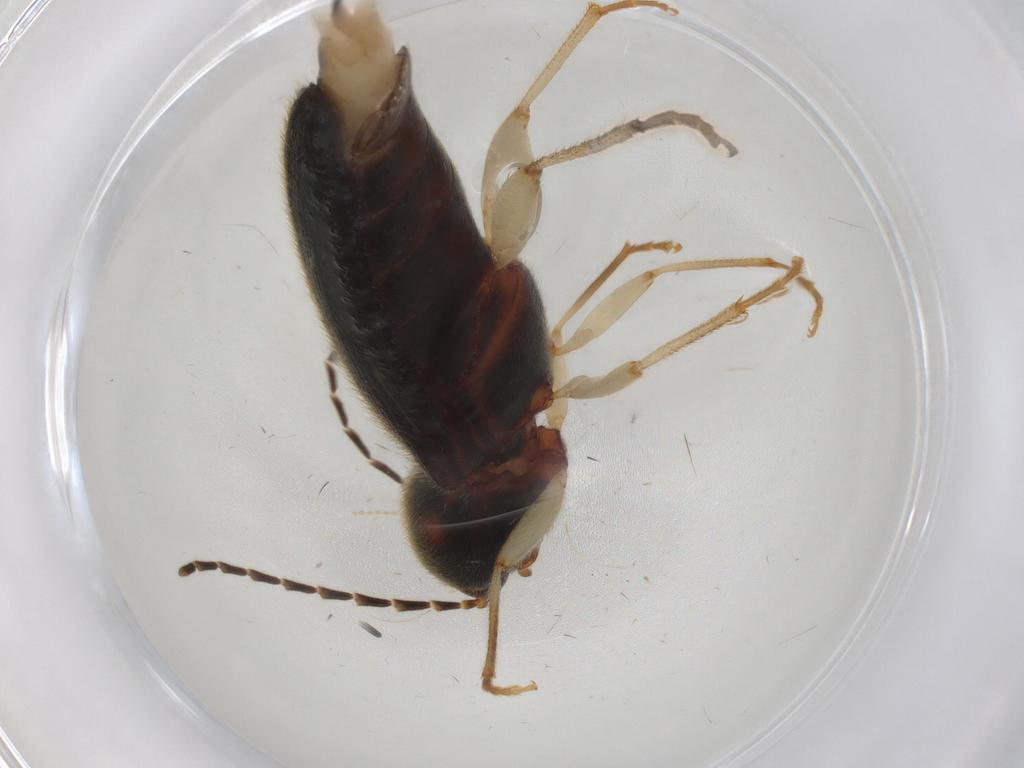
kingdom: Animalia
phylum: Arthropoda
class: Insecta
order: Coleoptera
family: Elateridae
